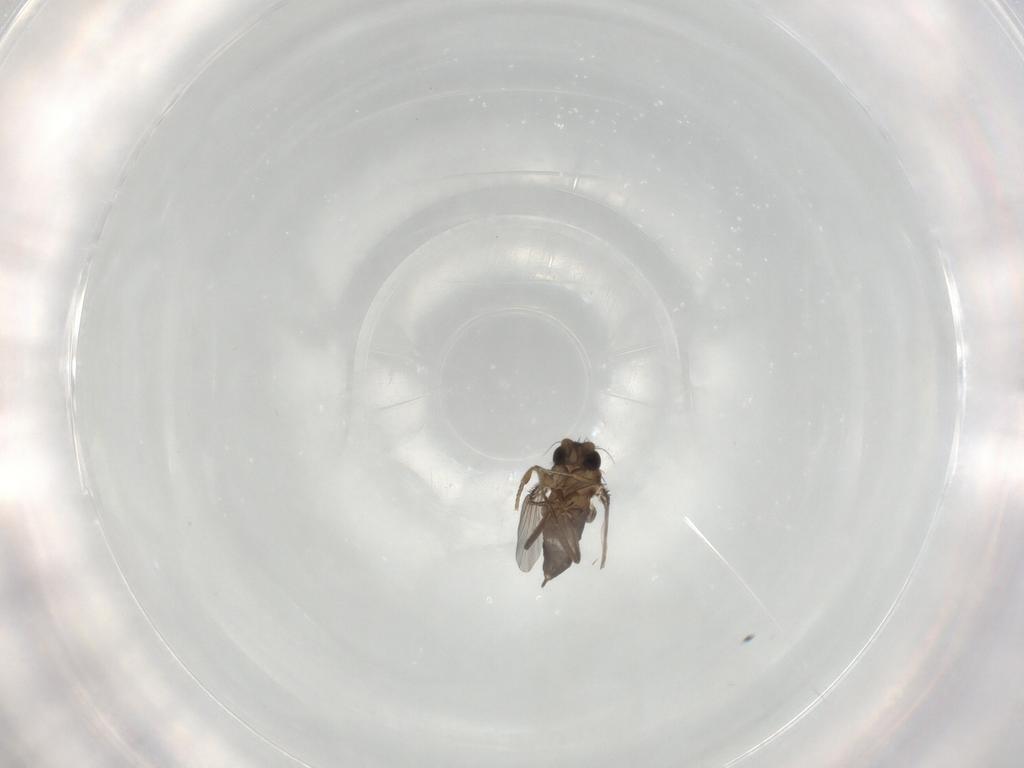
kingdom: Animalia
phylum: Arthropoda
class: Insecta
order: Diptera
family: Phoridae
